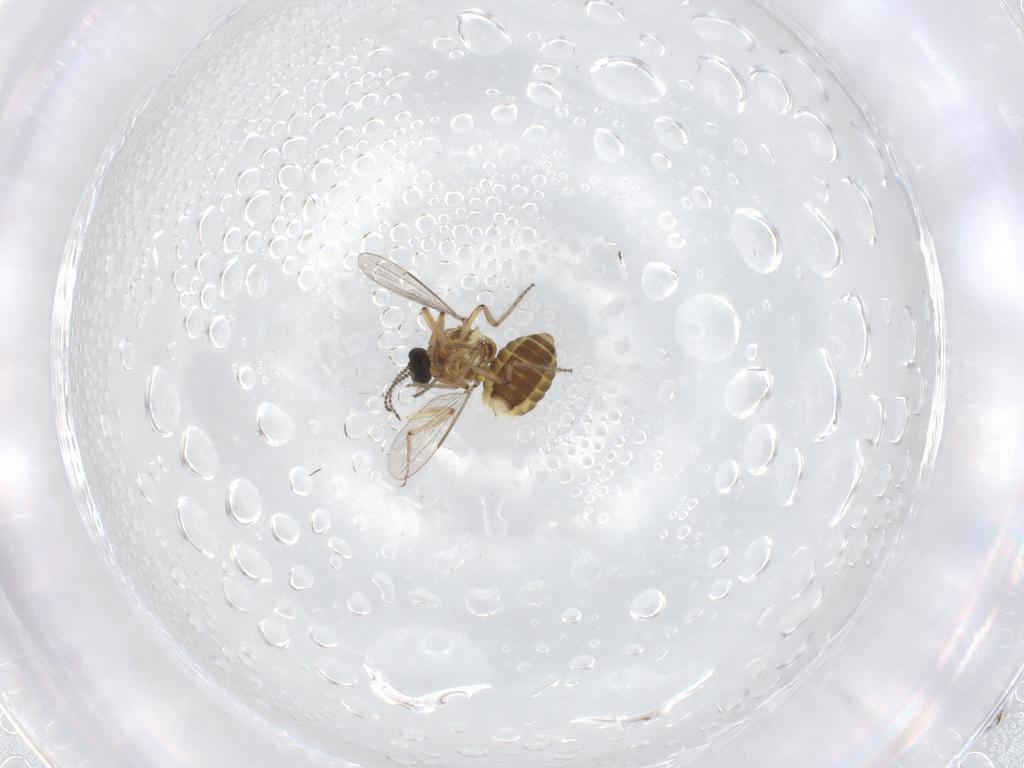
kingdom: Animalia
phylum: Arthropoda
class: Insecta
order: Diptera
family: Ceratopogonidae
